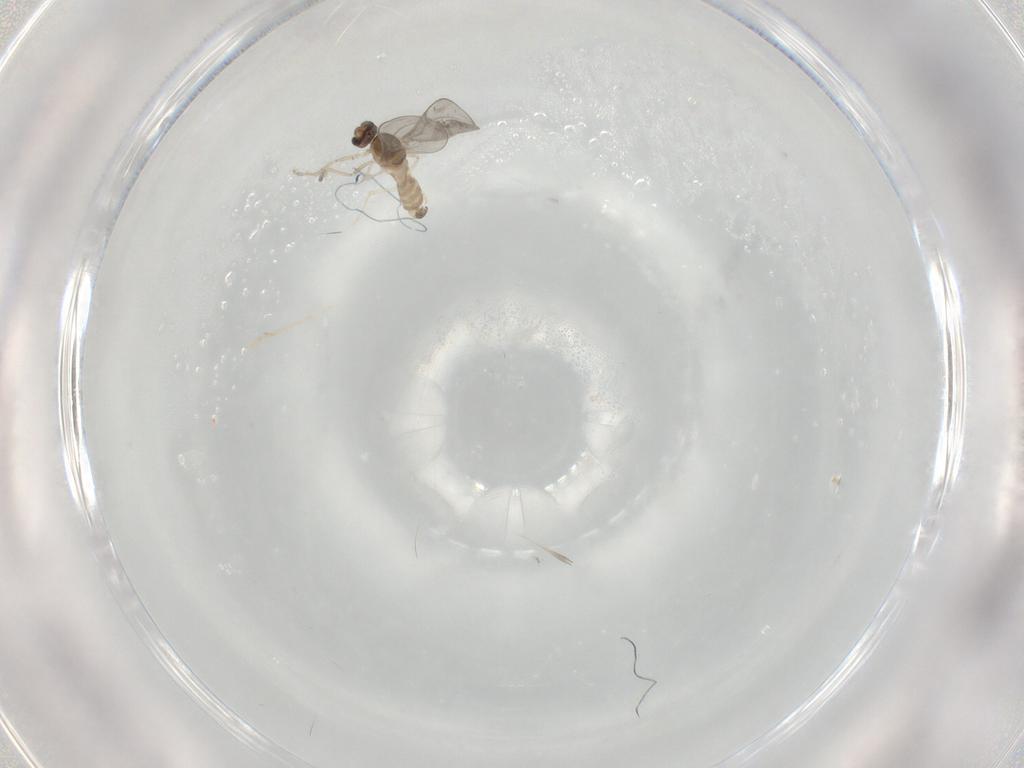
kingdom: Animalia
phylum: Arthropoda
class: Insecta
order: Diptera
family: Cecidomyiidae
